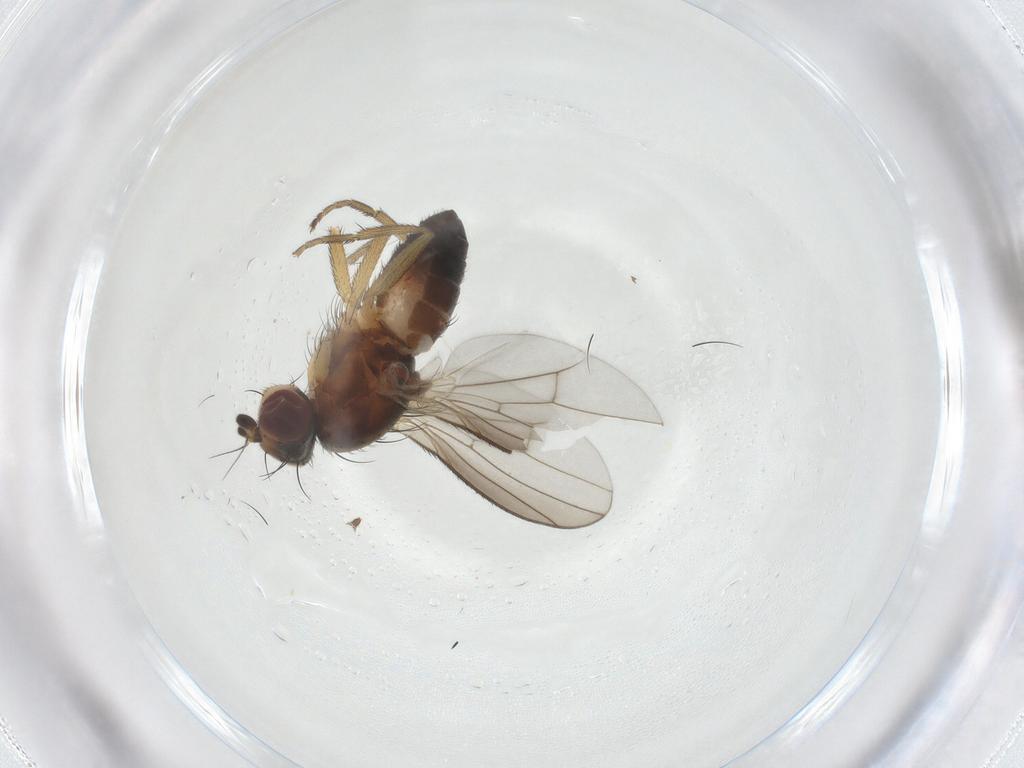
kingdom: Animalia
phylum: Arthropoda
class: Insecta
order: Diptera
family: Heleomyzidae
